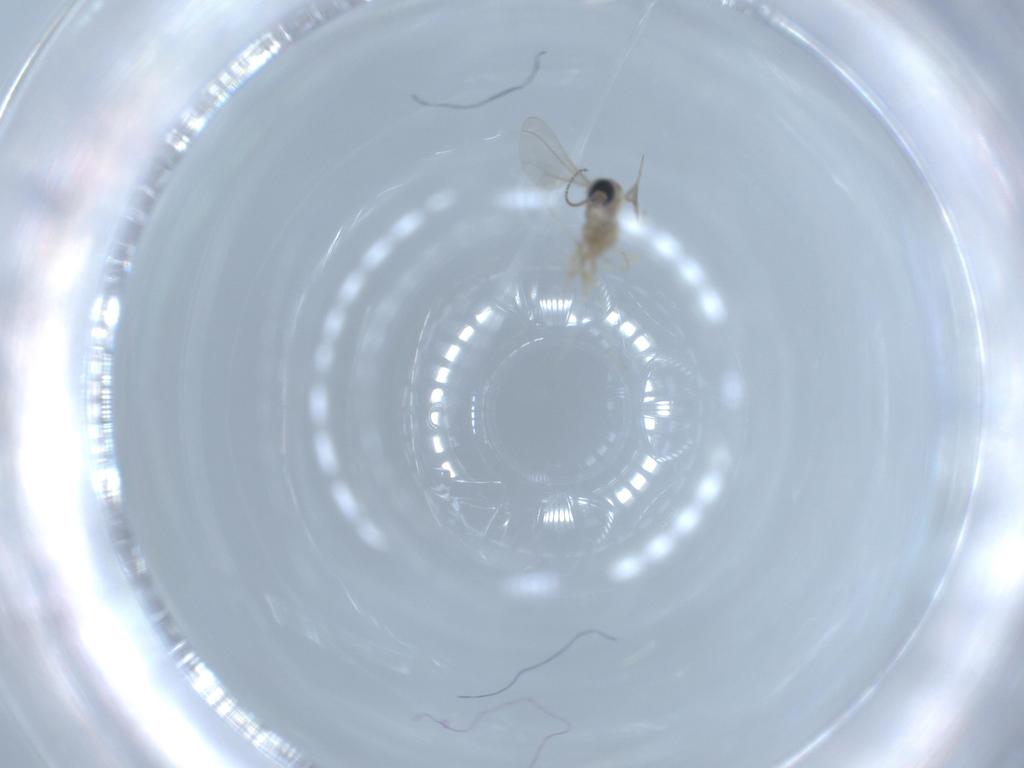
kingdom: Animalia
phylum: Arthropoda
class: Insecta
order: Diptera
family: Cecidomyiidae
